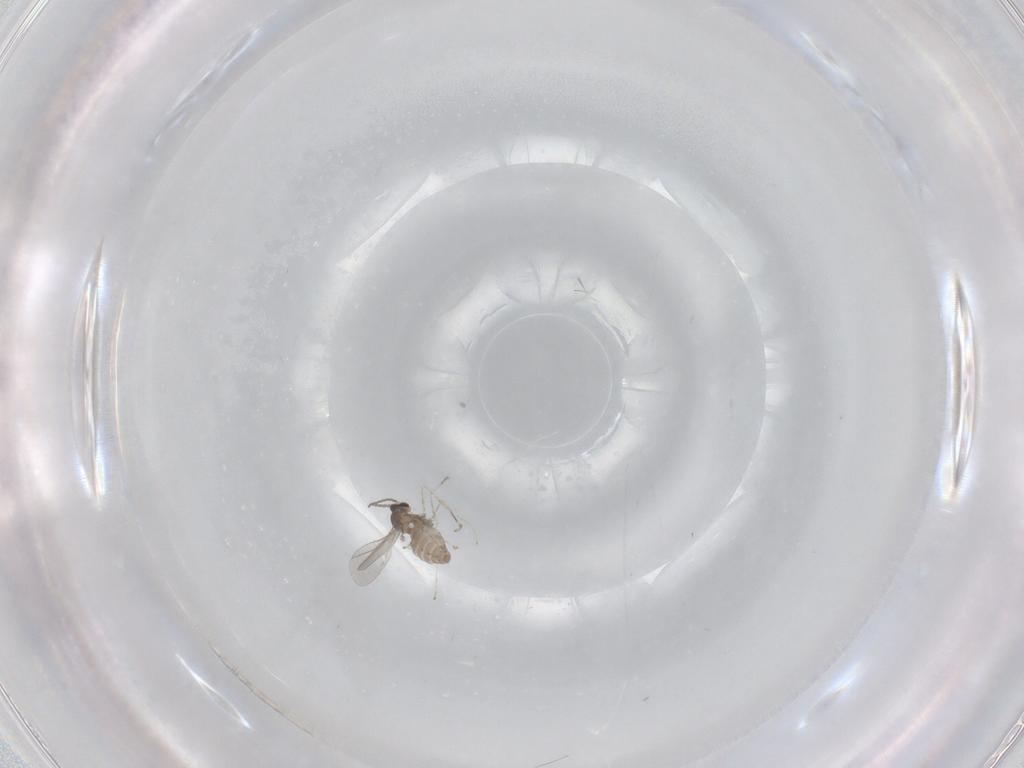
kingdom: Animalia
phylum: Arthropoda
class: Insecta
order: Diptera
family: Cecidomyiidae
